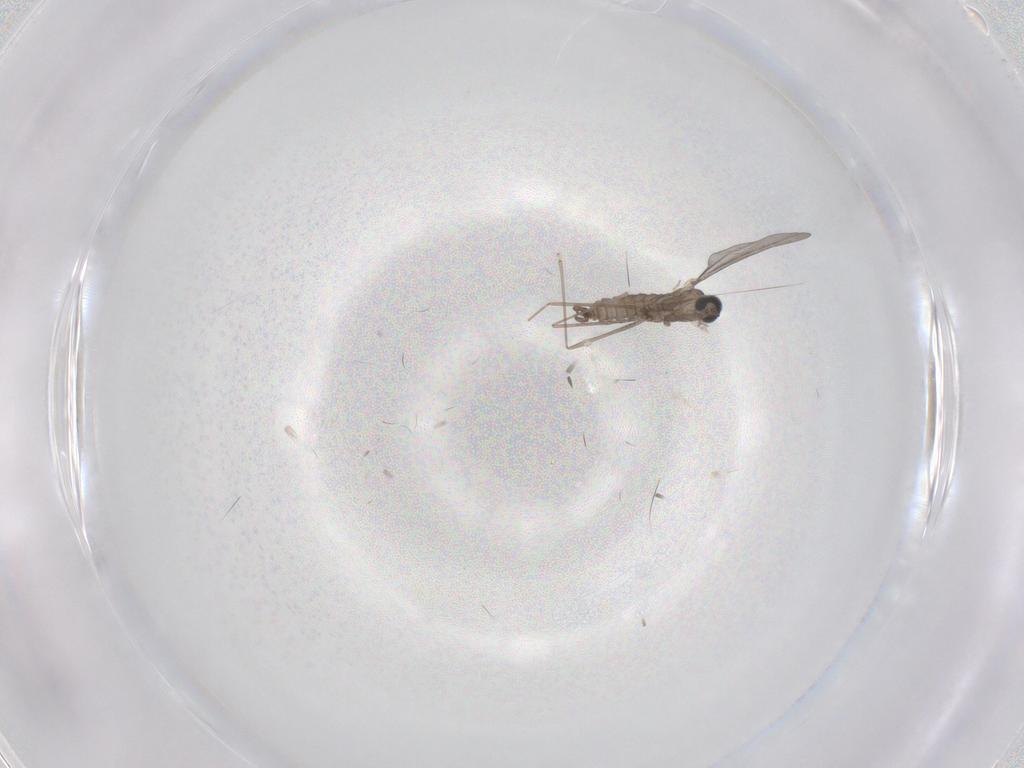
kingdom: Animalia
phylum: Arthropoda
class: Insecta
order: Diptera
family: Cecidomyiidae
